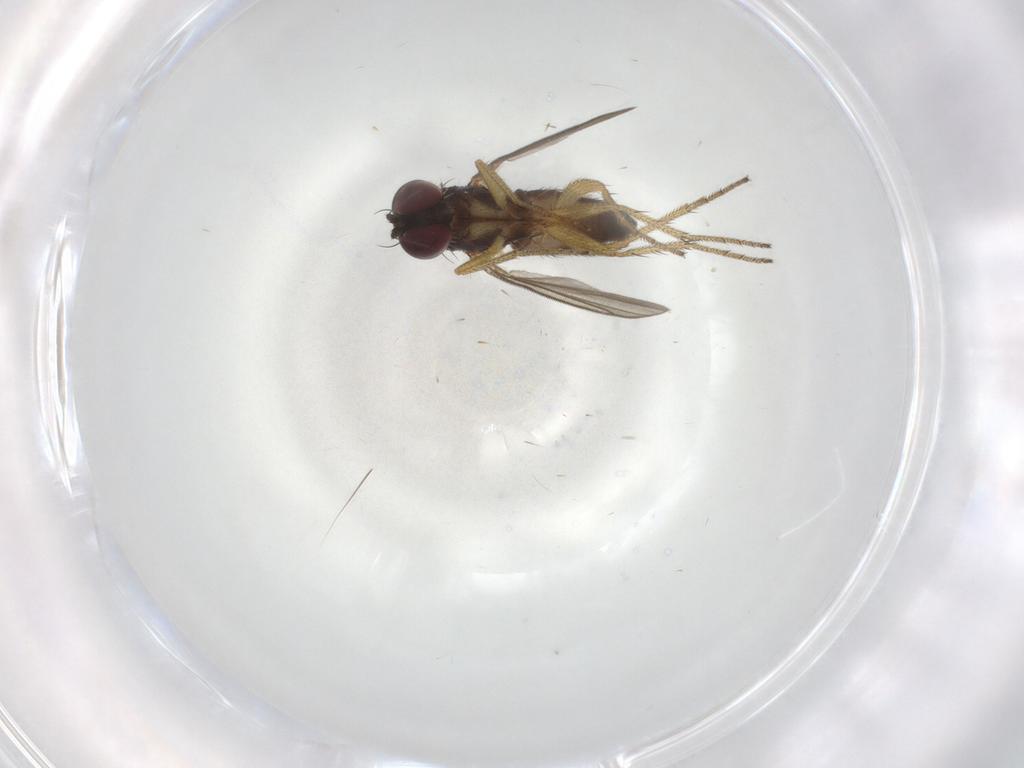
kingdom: Animalia
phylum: Arthropoda
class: Insecta
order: Diptera
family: Dolichopodidae
